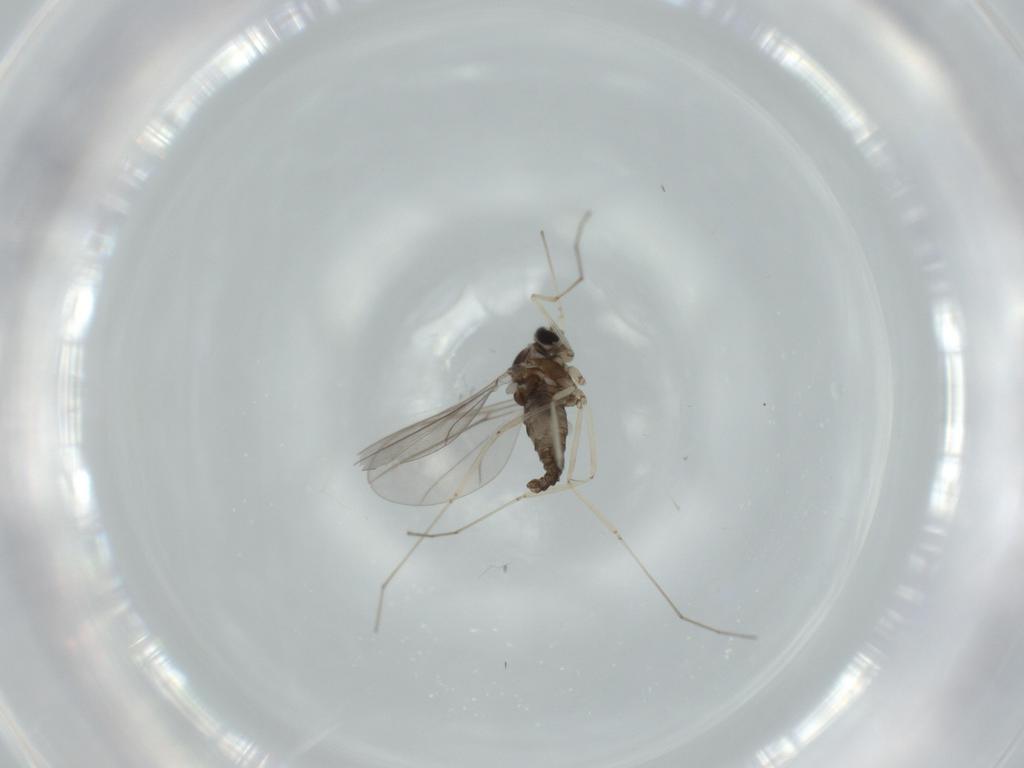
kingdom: Animalia
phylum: Arthropoda
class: Insecta
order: Diptera
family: Cecidomyiidae
